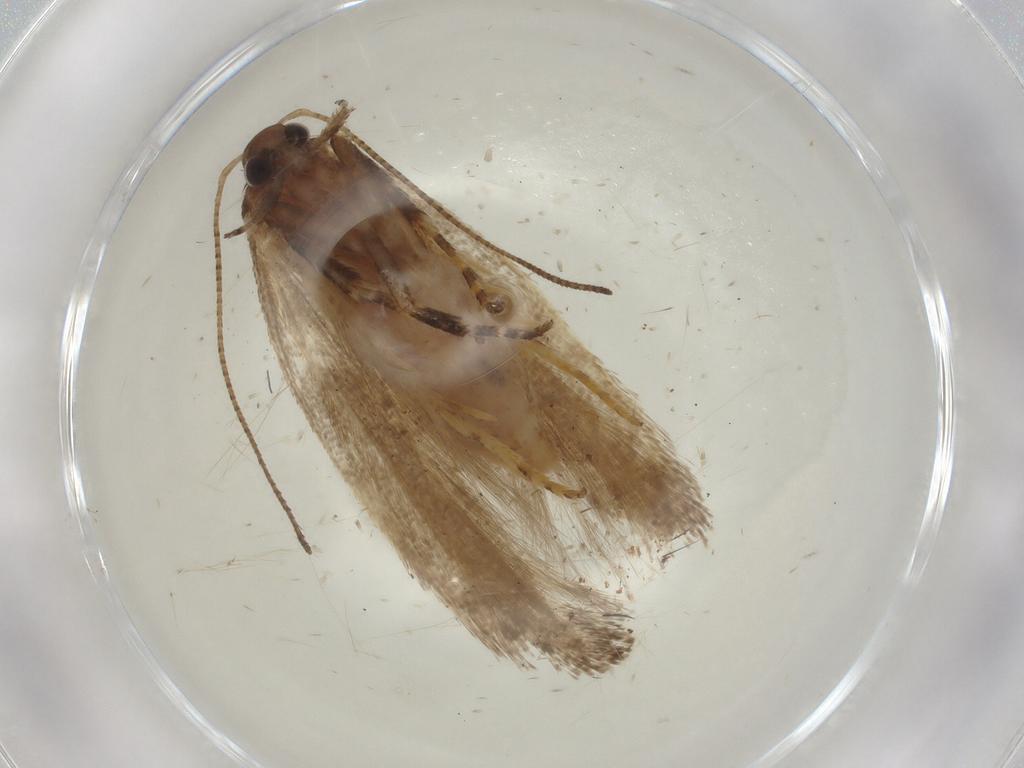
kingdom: Animalia
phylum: Arthropoda
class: Insecta
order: Lepidoptera
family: Gelechiidae
